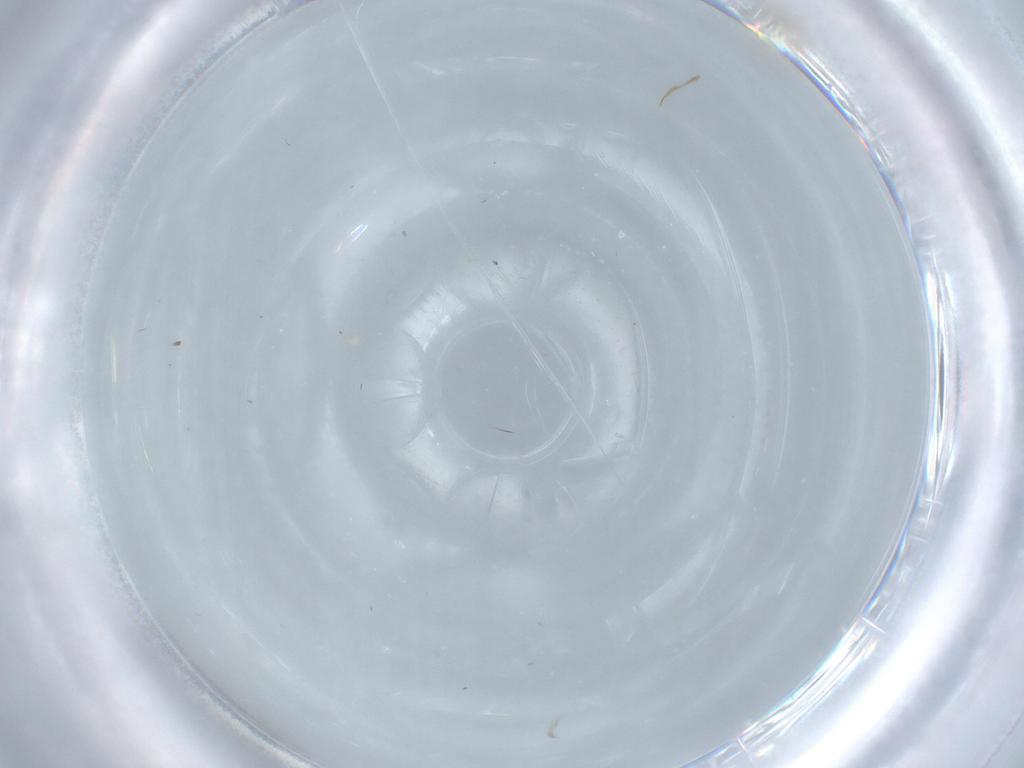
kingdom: Animalia
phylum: Arthropoda
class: Insecta
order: Diptera
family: Cecidomyiidae
